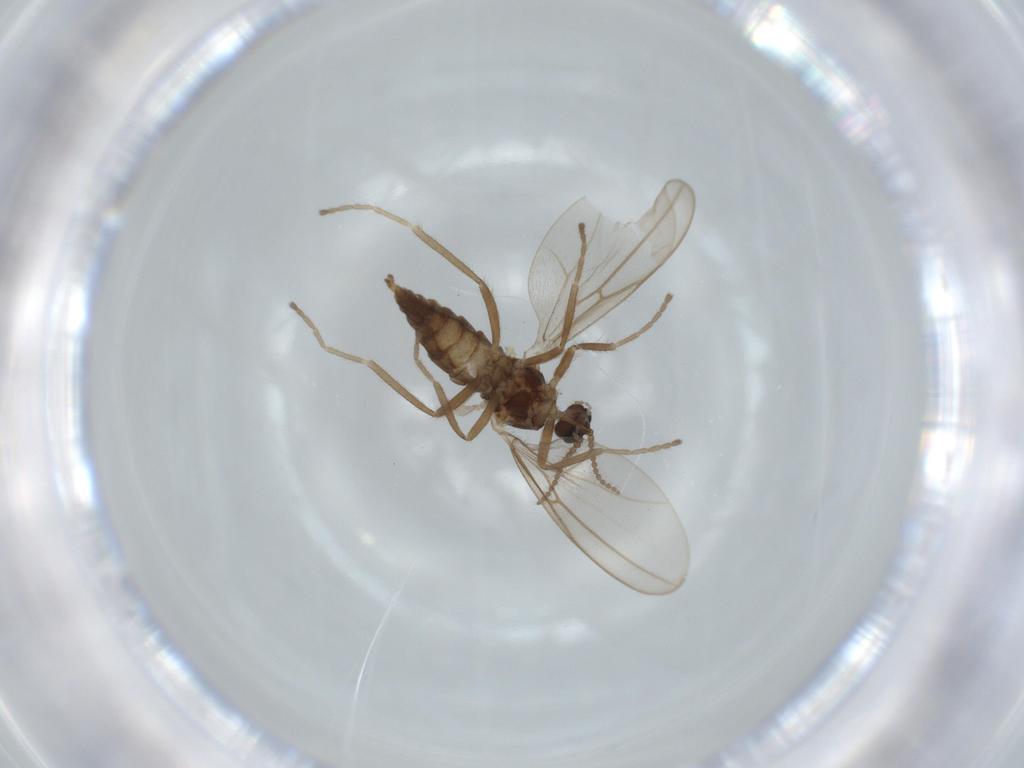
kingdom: Animalia
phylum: Arthropoda
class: Insecta
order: Diptera
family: Cecidomyiidae
